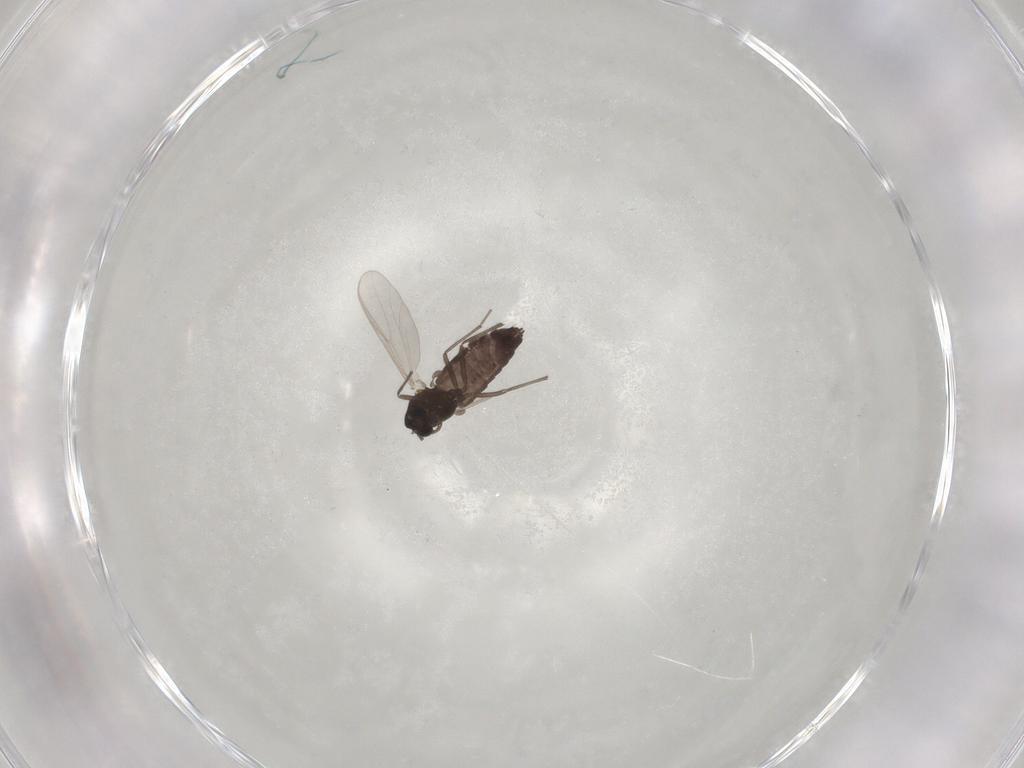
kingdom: Animalia
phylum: Arthropoda
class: Insecta
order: Diptera
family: Chironomidae
